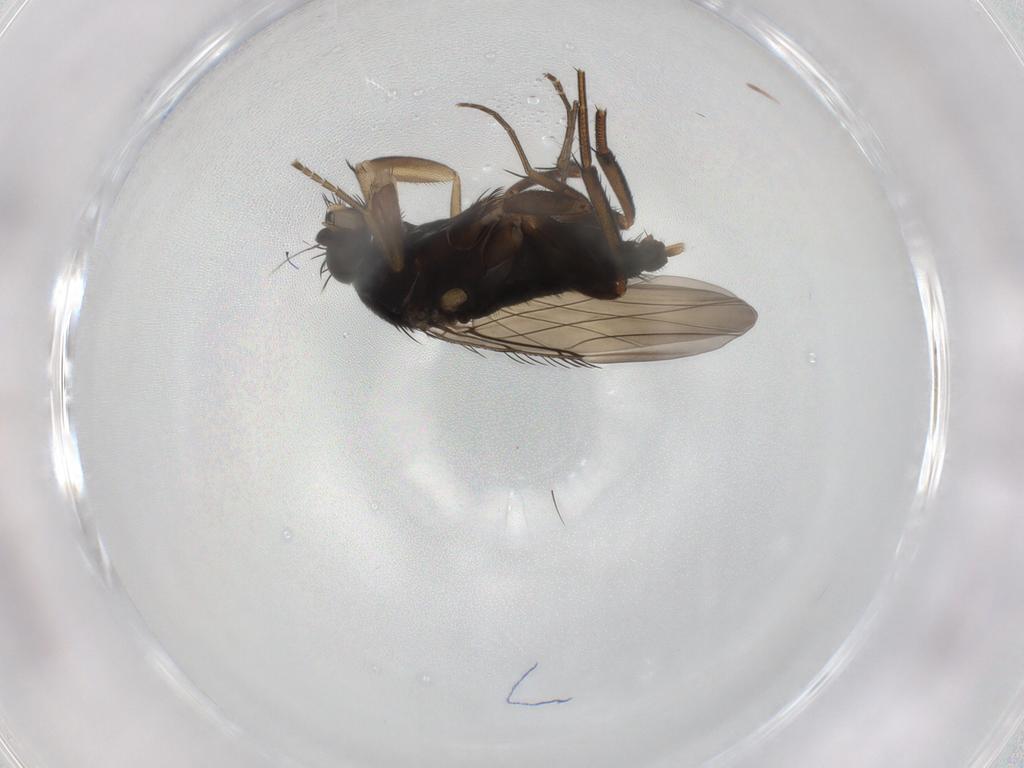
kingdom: Animalia
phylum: Arthropoda
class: Insecta
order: Diptera
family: Phoridae
